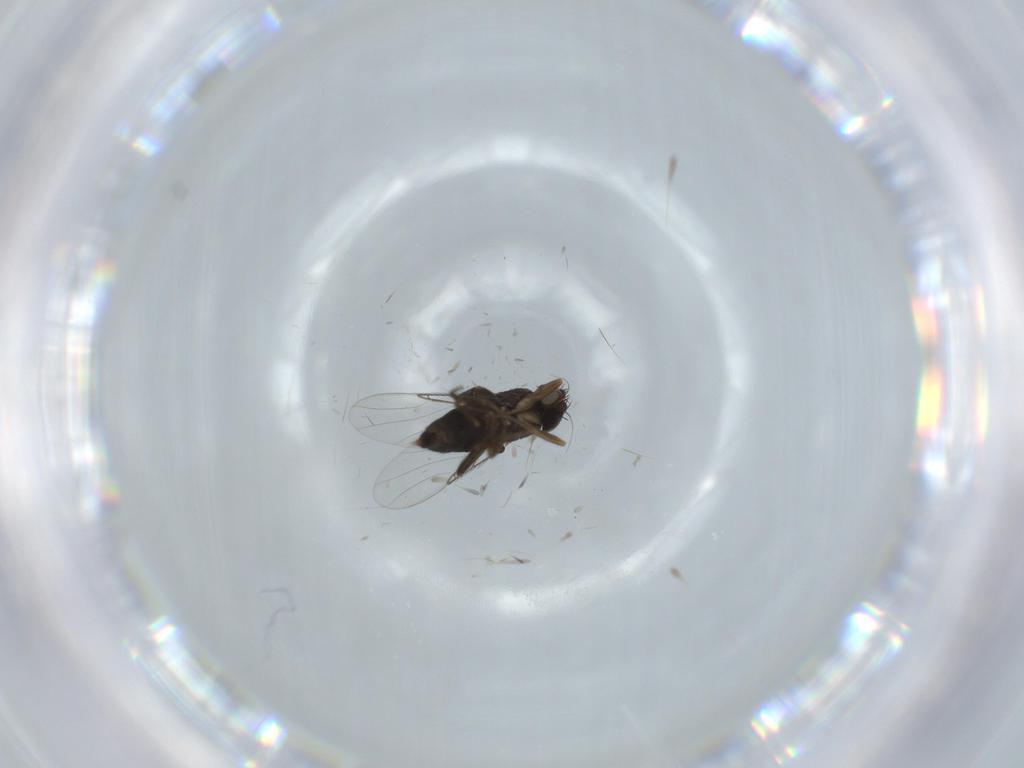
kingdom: Animalia
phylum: Arthropoda
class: Insecta
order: Diptera
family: Phoridae
